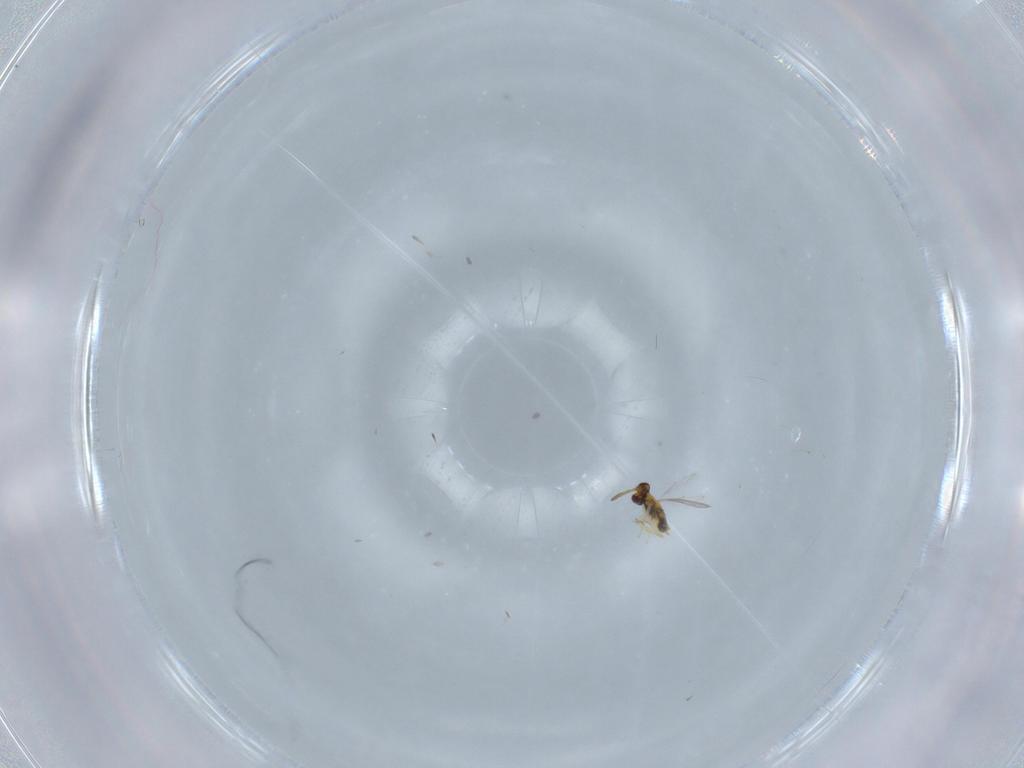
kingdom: Animalia
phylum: Arthropoda
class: Insecta
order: Hymenoptera
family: Aphelinidae
